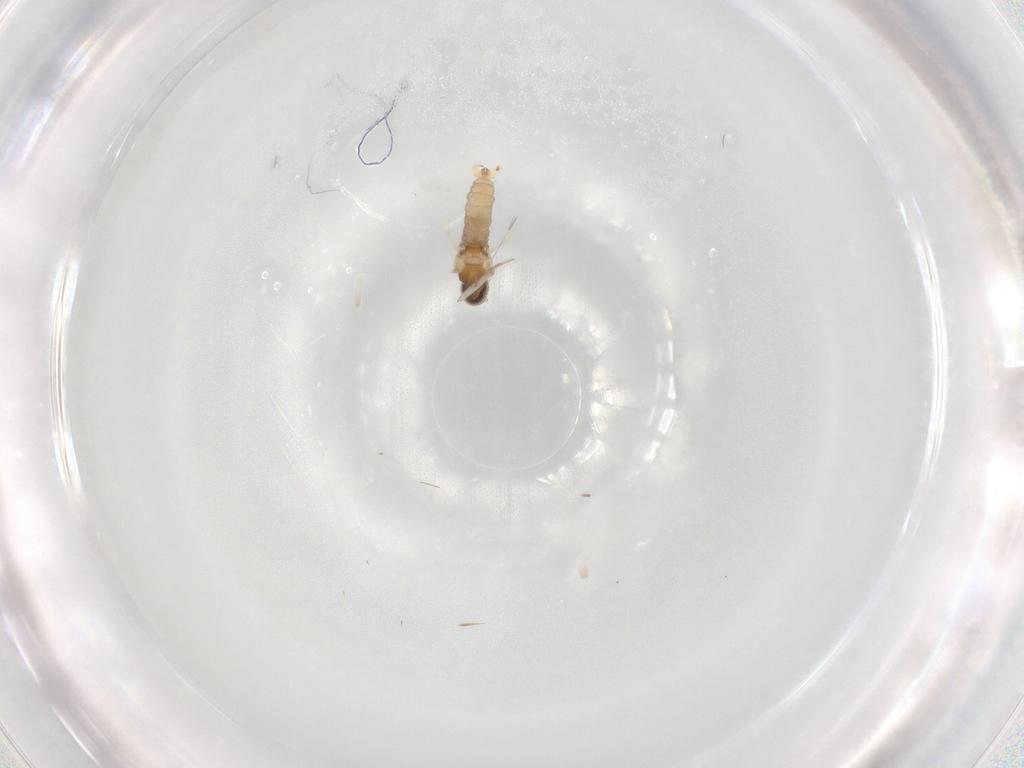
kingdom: Animalia
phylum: Arthropoda
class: Insecta
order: Diptera
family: Cecidomyiidae
